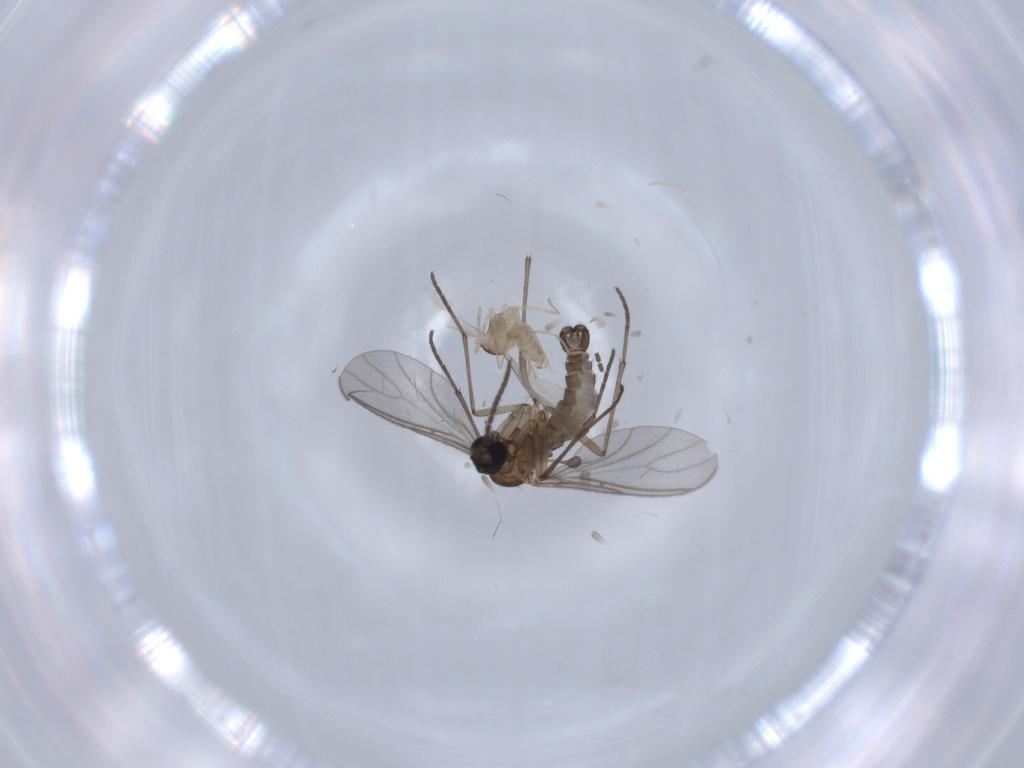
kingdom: Animalia
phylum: Arthropoda
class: Insecta
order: Diptera
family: Cecidomyiidae
